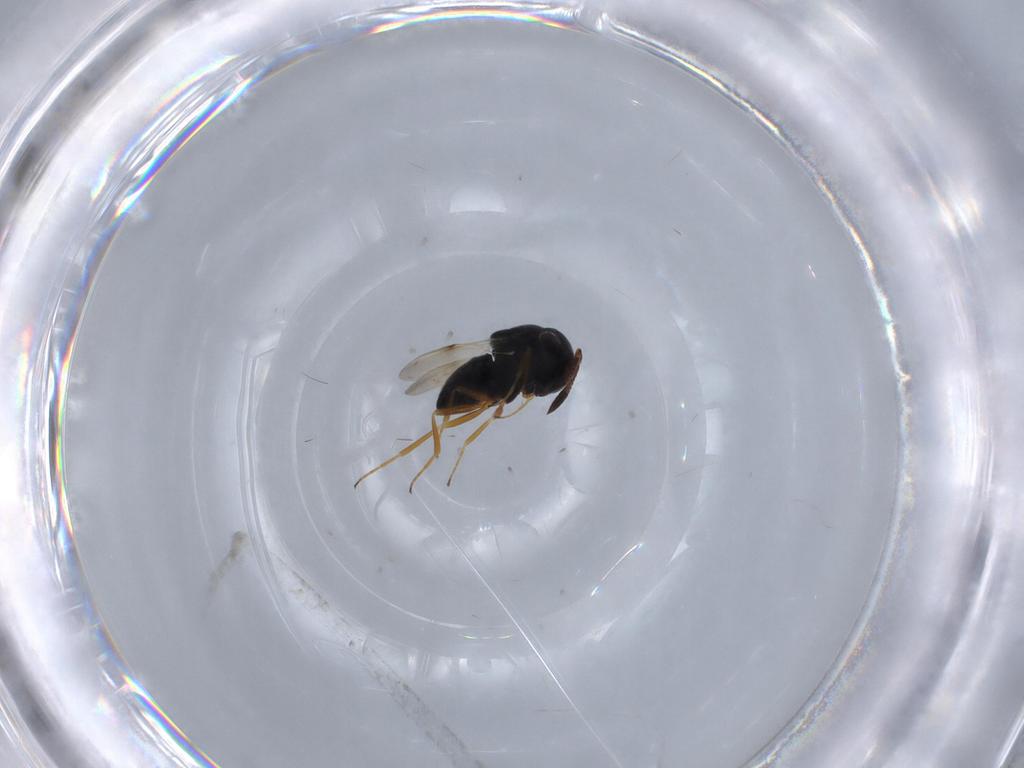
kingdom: Animalia
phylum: Arthropoda
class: Insecta
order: Hymenoptera
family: Scelionidae
